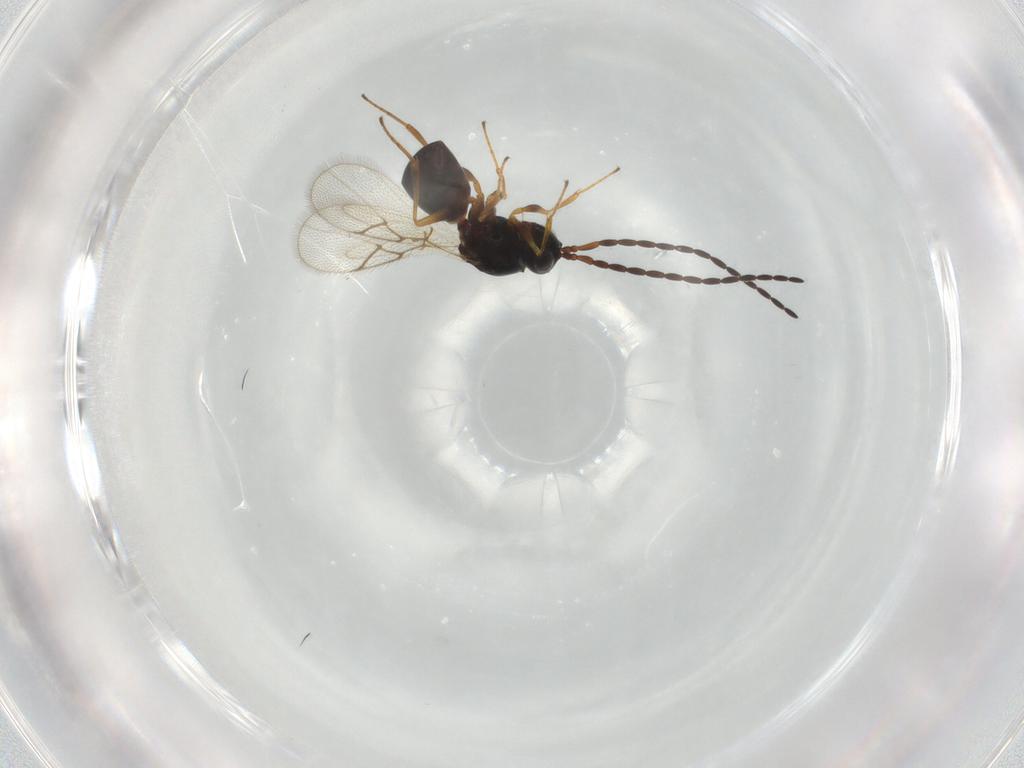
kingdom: Animalia
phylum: Arthropoda
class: Insecta
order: Hymenoptera
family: Figitidae
